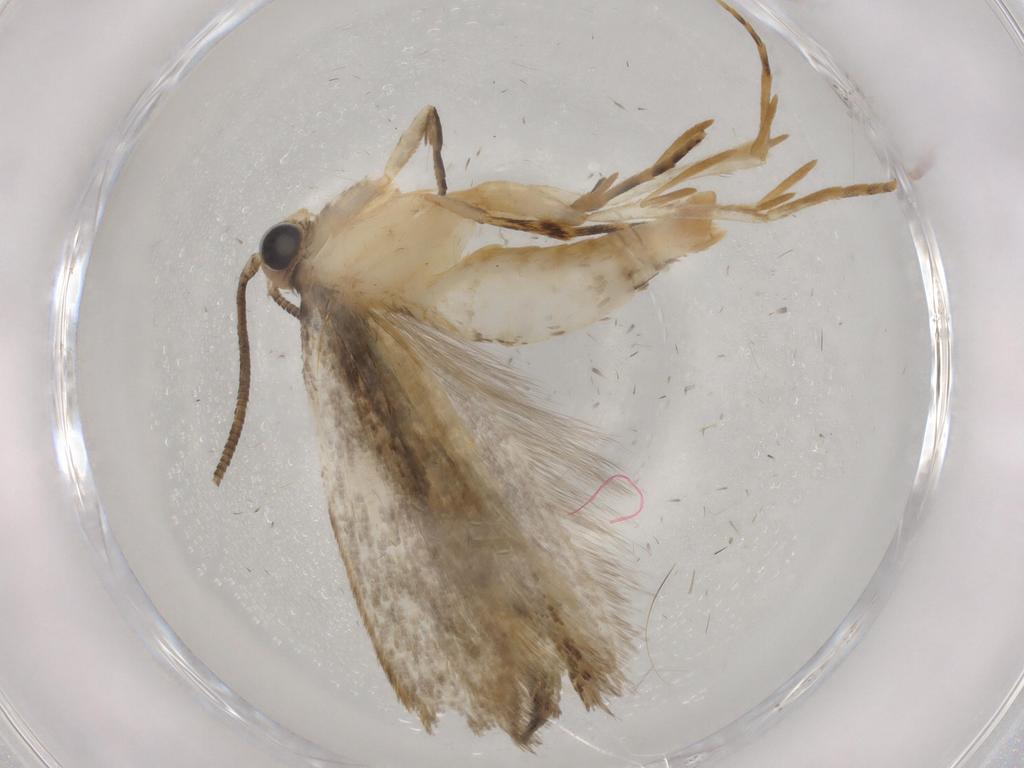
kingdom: Animalia
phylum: Arthropoda
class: Insecta
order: Lepidoptera
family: Tineidae
